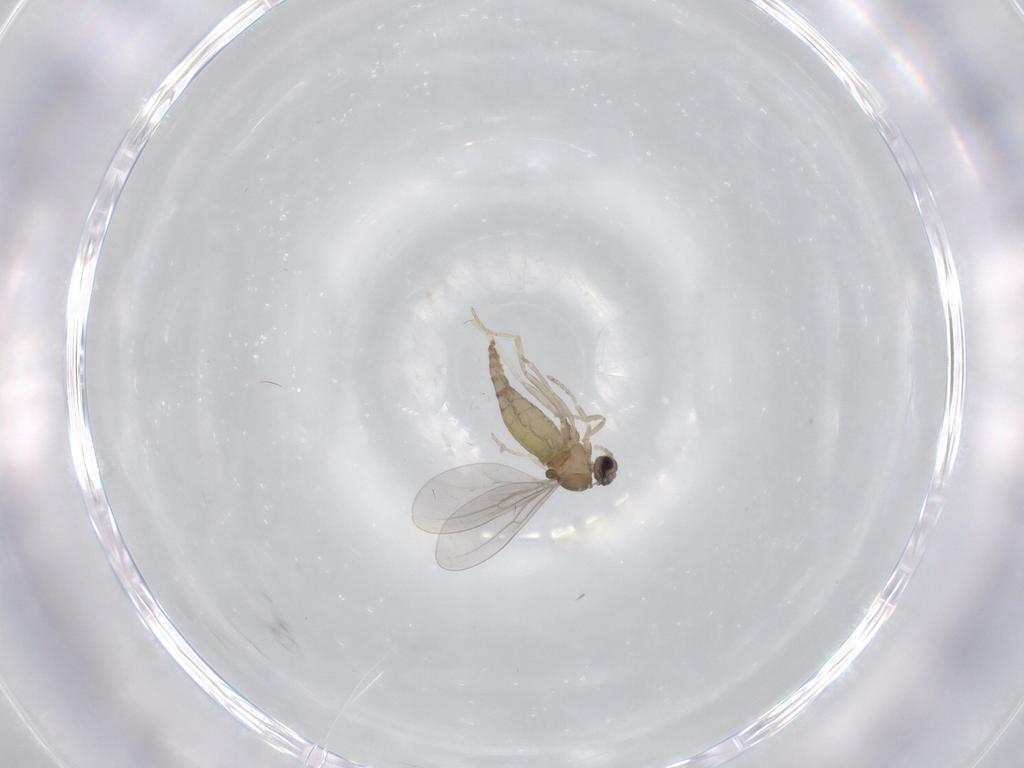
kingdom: Animalia
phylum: Arthropoda
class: Insecta
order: Diptera
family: Cecidomyiidae
